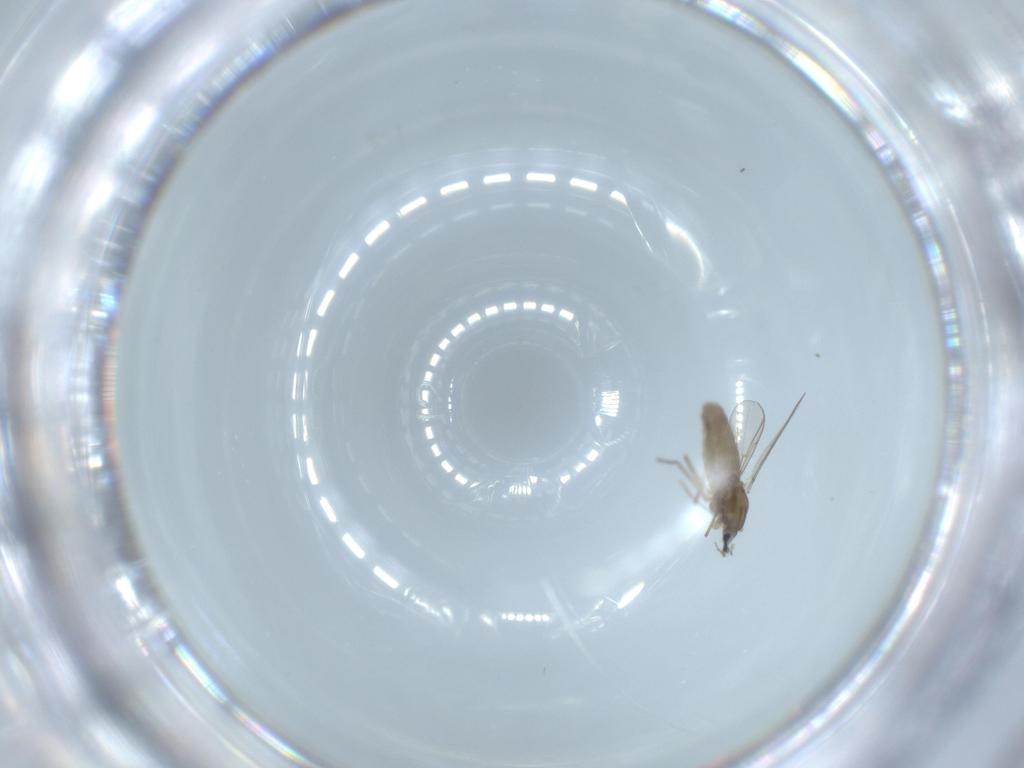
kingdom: Animalia
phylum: Arthropoda
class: Insecta
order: Diptera
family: Chironomidae
